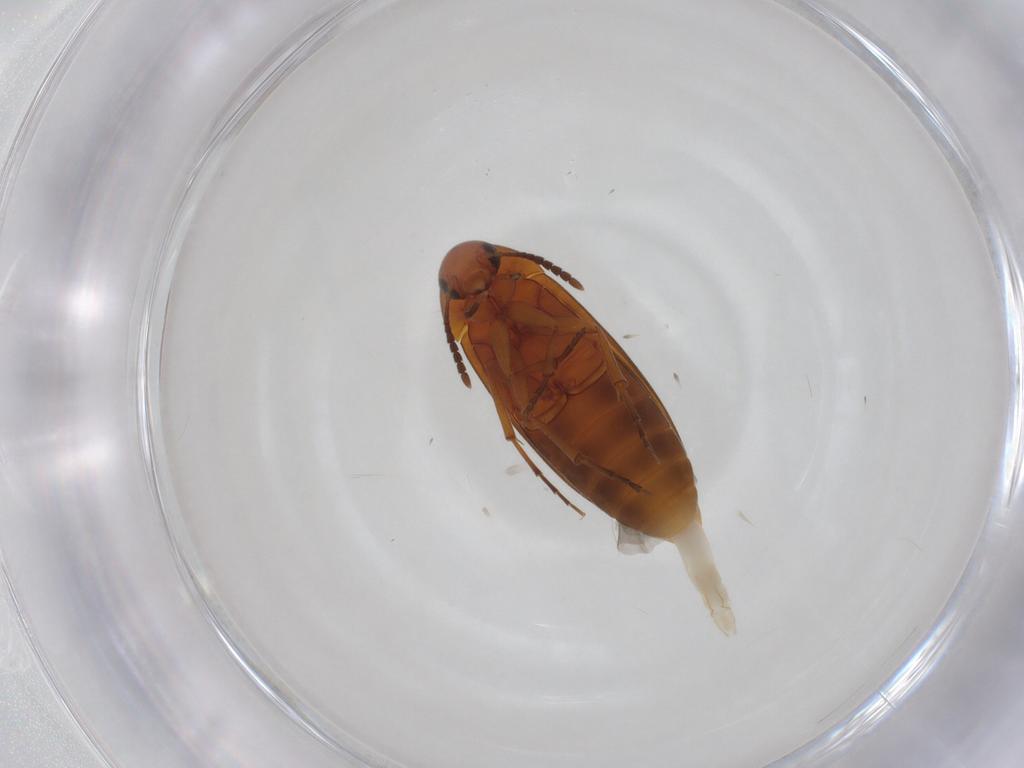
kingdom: Animalia
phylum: Arthropoda
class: Insecta
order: Coleoptera
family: Scraptiidae
